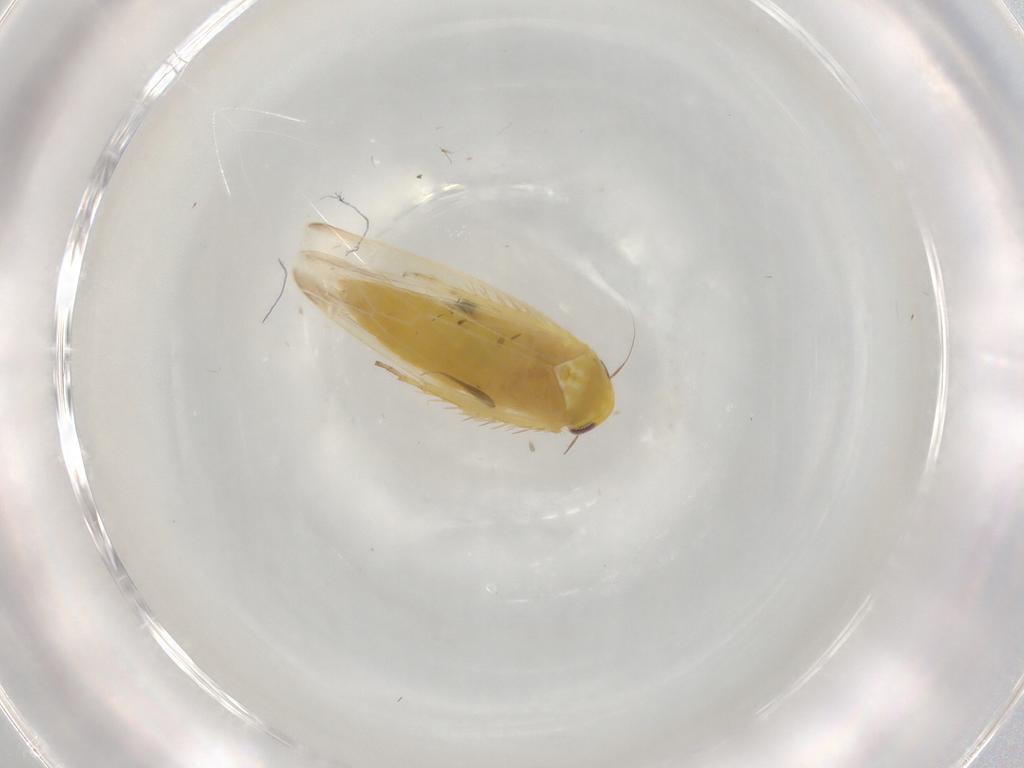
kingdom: Animalia
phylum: Arthropoda
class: Insecta
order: Hemiptera
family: Cicadellidae
